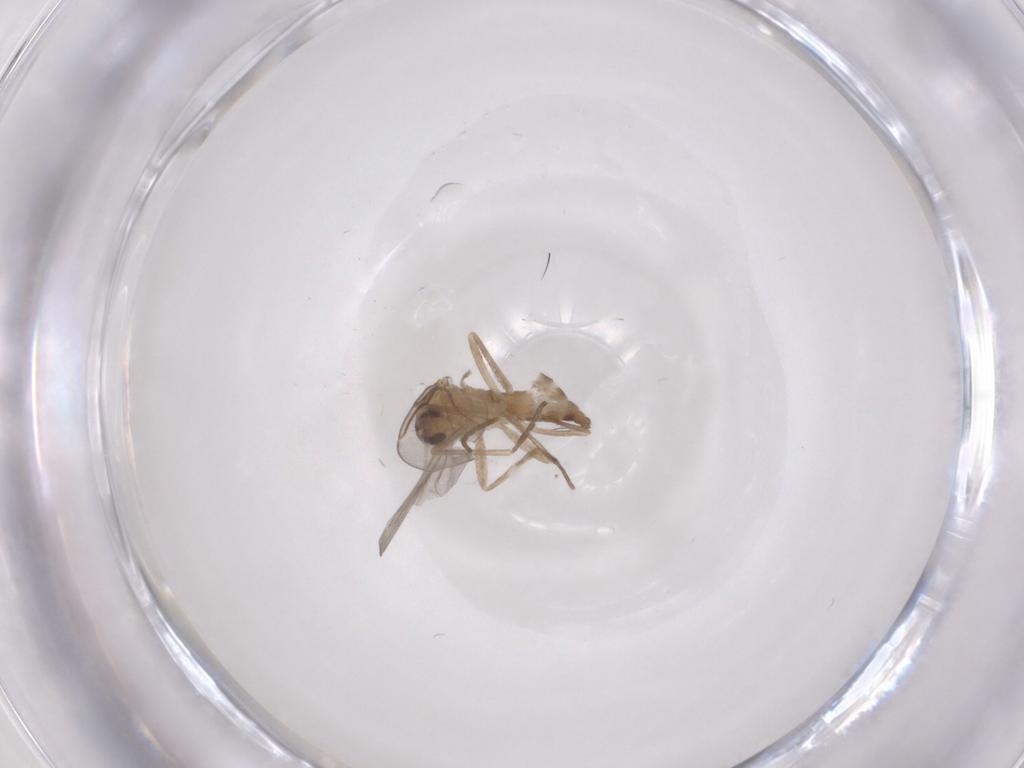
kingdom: Animalia
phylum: Arthropoda
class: Insecta
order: Diptera
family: Cecidomyiidae
